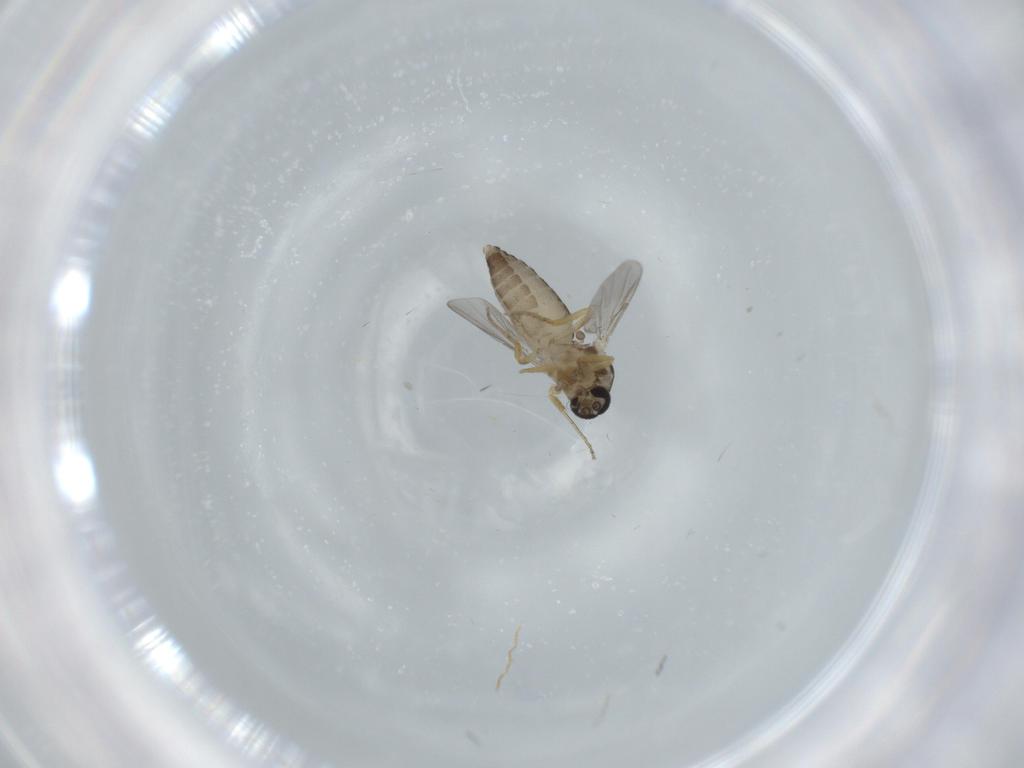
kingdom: Animalia
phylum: Arthropoda
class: Insecta
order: Diptera
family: Ceratopogonidae
